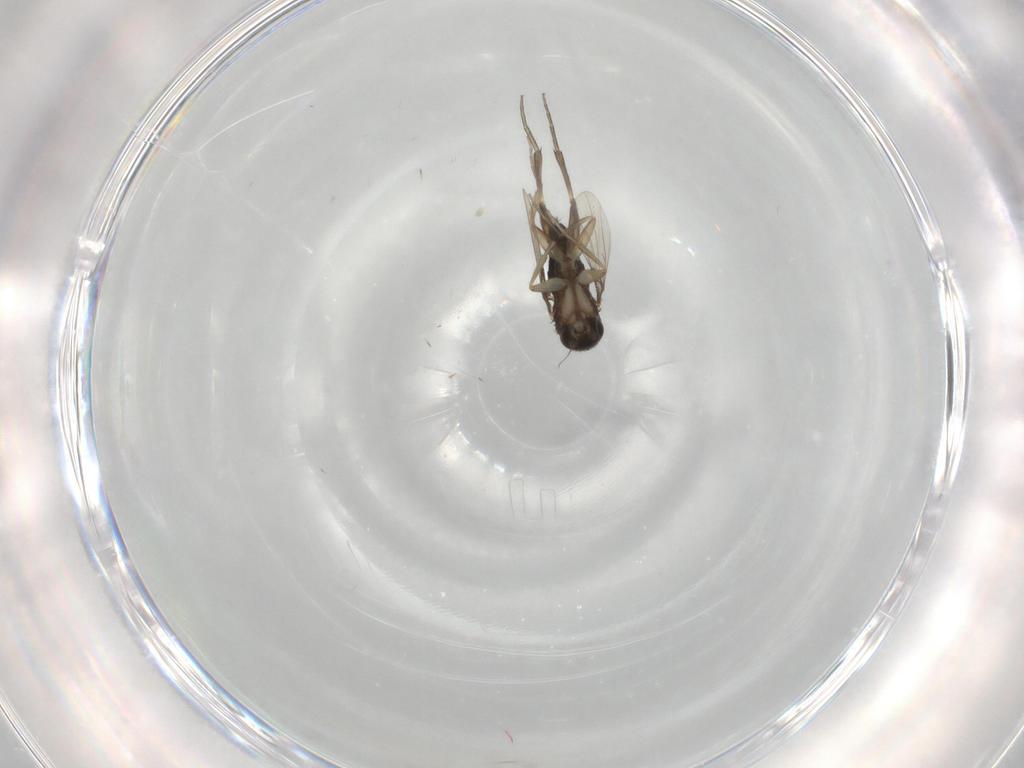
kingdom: Animalia
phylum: Arthropoda
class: Insecta
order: Diptera
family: Phoridae
